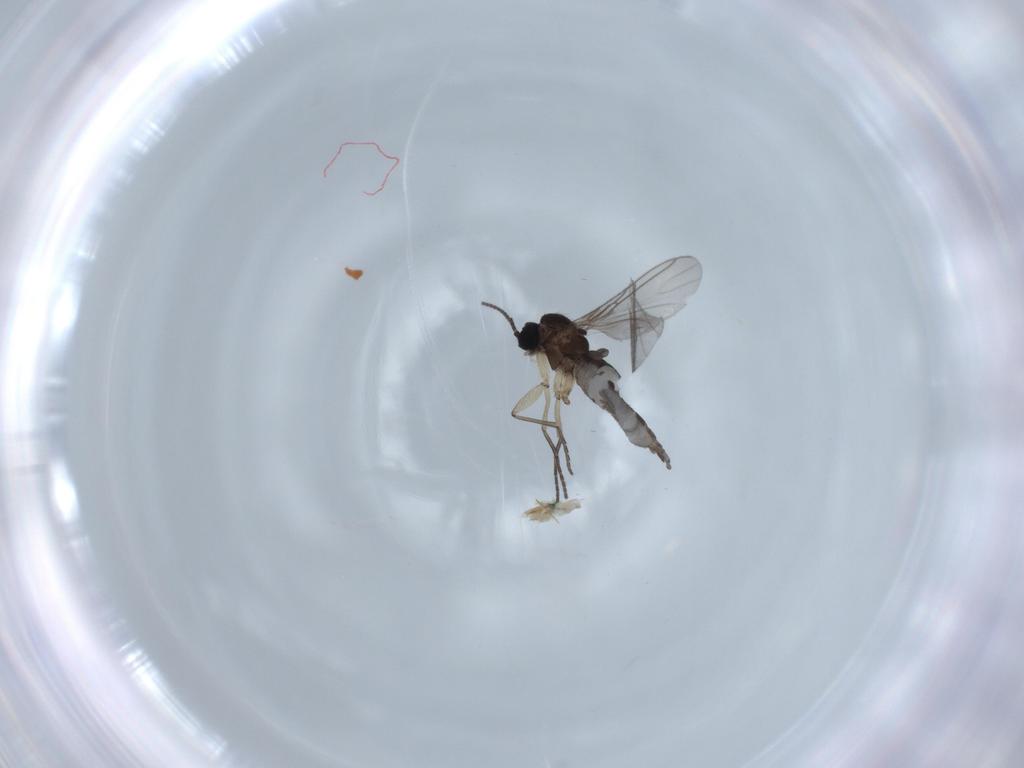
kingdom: Animalia
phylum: Arthropoda
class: Insecta
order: Diptera
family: Sciaridae
